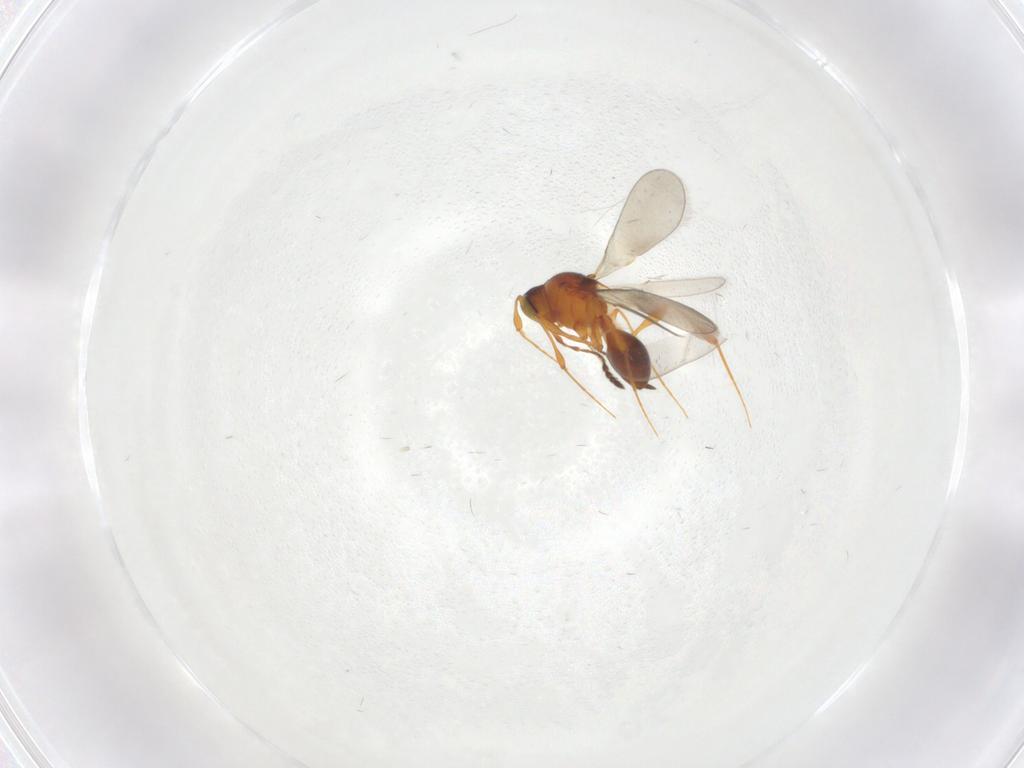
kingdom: Animalia
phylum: Arthropoda
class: Insecta
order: Hymenoptera
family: Platygastridae
